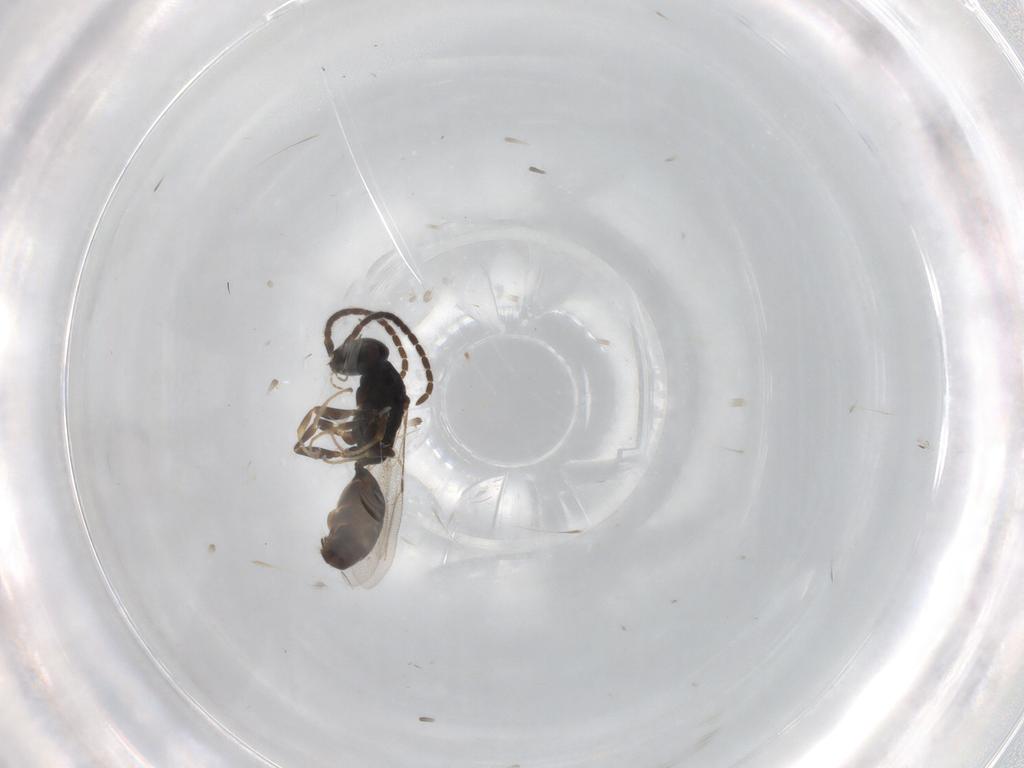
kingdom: Animalia
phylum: Arthropoda
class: Insecta
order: Hymenoptera
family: Bethylidae
